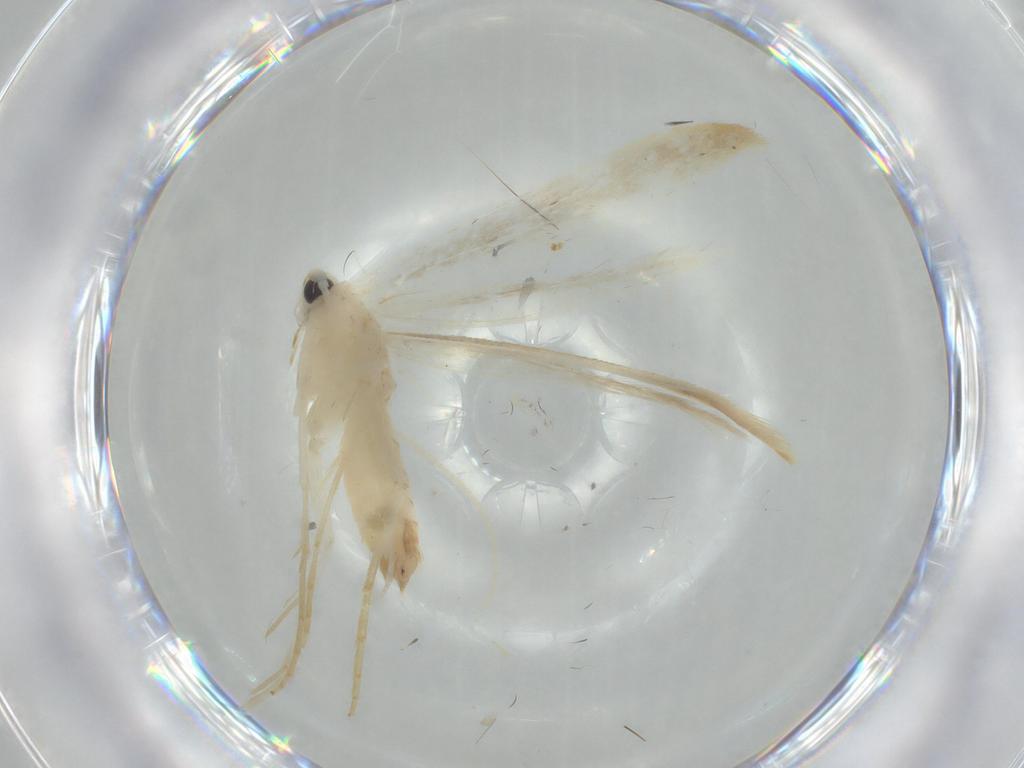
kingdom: Animalia
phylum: Arthropoda
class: Insecta
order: Lepidoptera
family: Lyonetiidae
